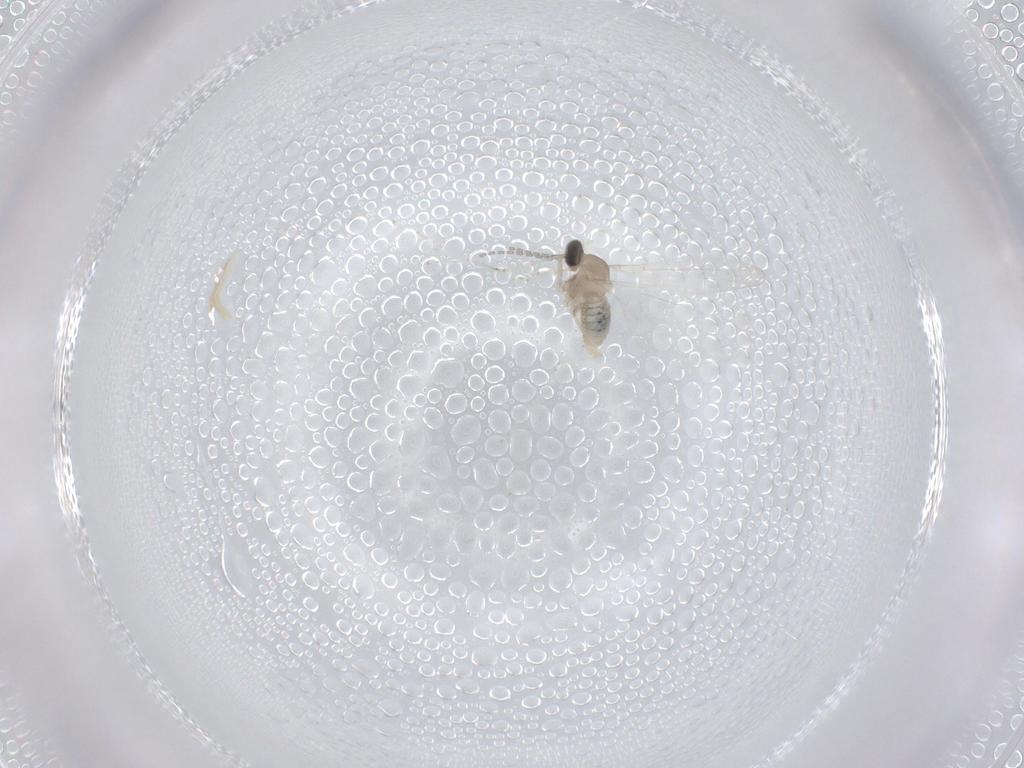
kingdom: Animalia
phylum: Arthropoda
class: Insecta
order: Diptera
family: Cecidomyiidae
